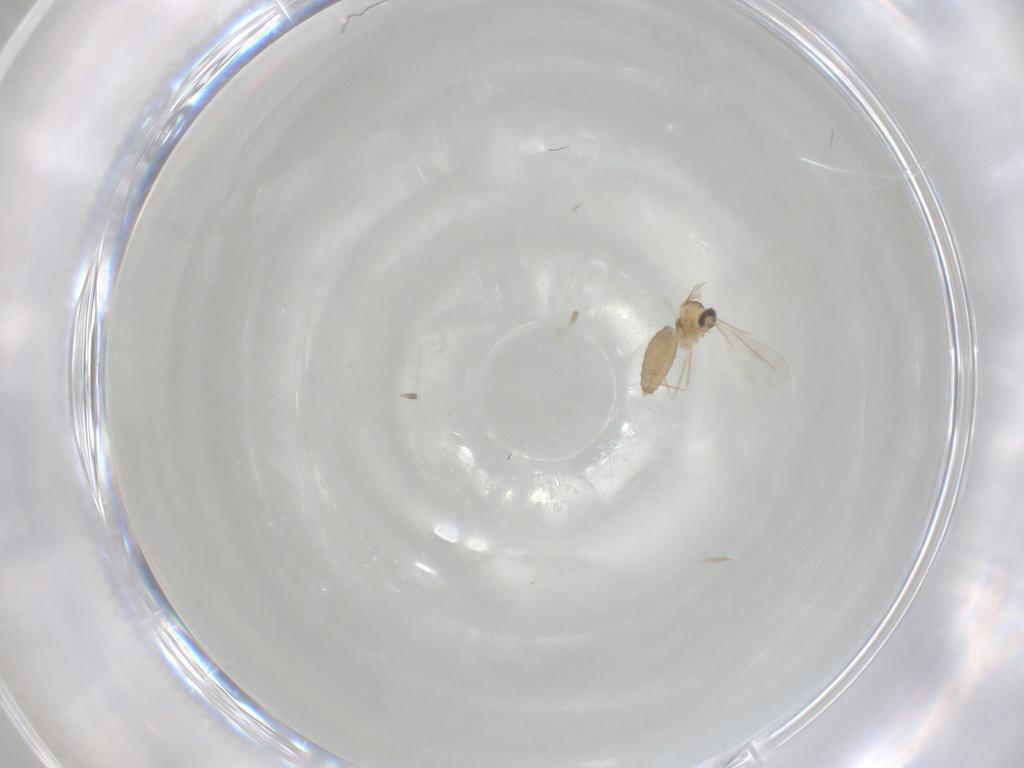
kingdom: Animalia
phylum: Arthropoda
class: Insecta
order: Diptera
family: Cecidomyiidae
